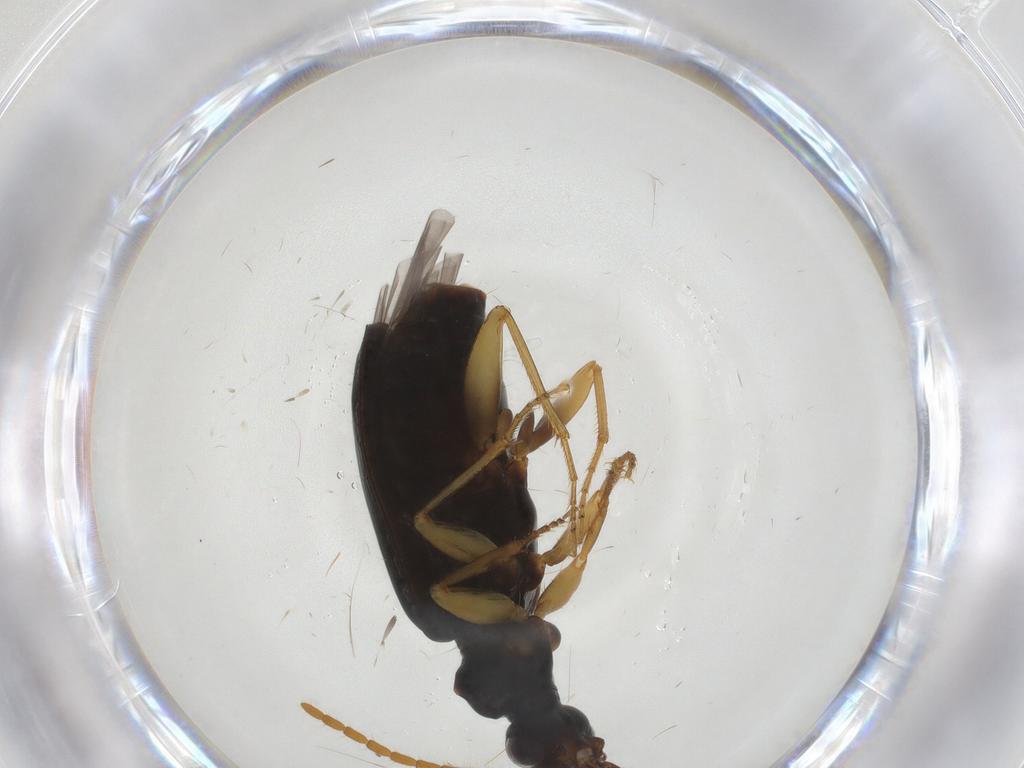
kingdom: Animalia
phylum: Arthropoda
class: Insecta
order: Coleoptera
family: Carabidae
